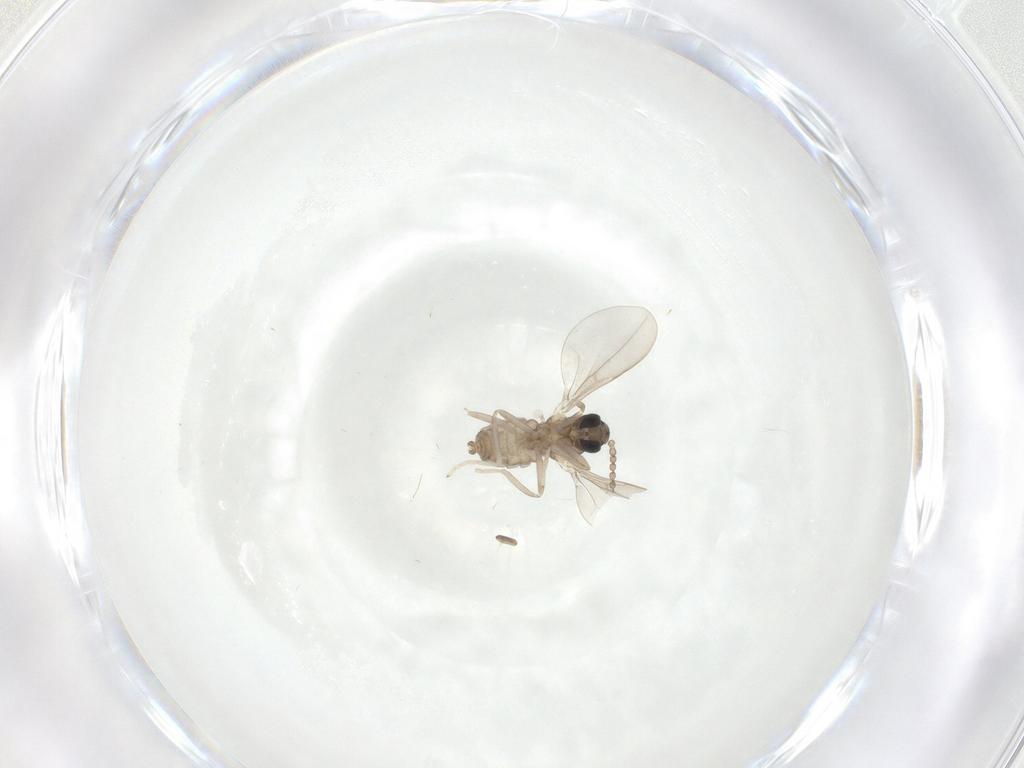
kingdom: Animalia
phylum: Arthropoda
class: Insecta
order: Diptera
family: Cecidomyiidae
